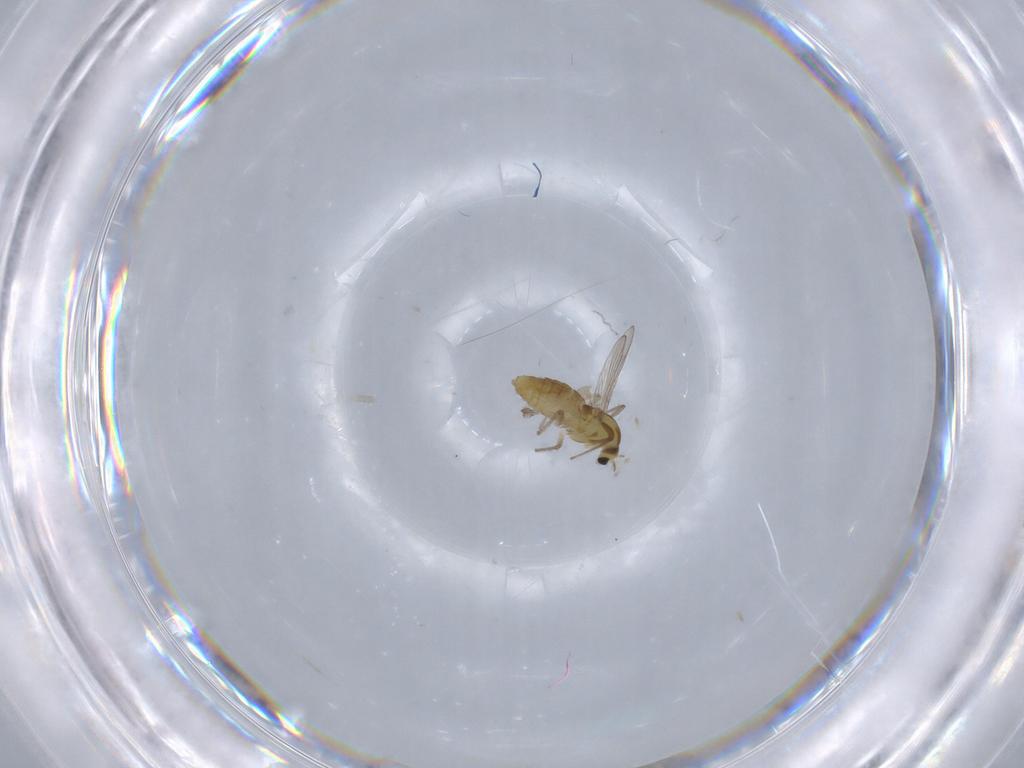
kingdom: Animalia
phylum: Arthropoda
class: Insecta
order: Diptera
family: Chironomidae
